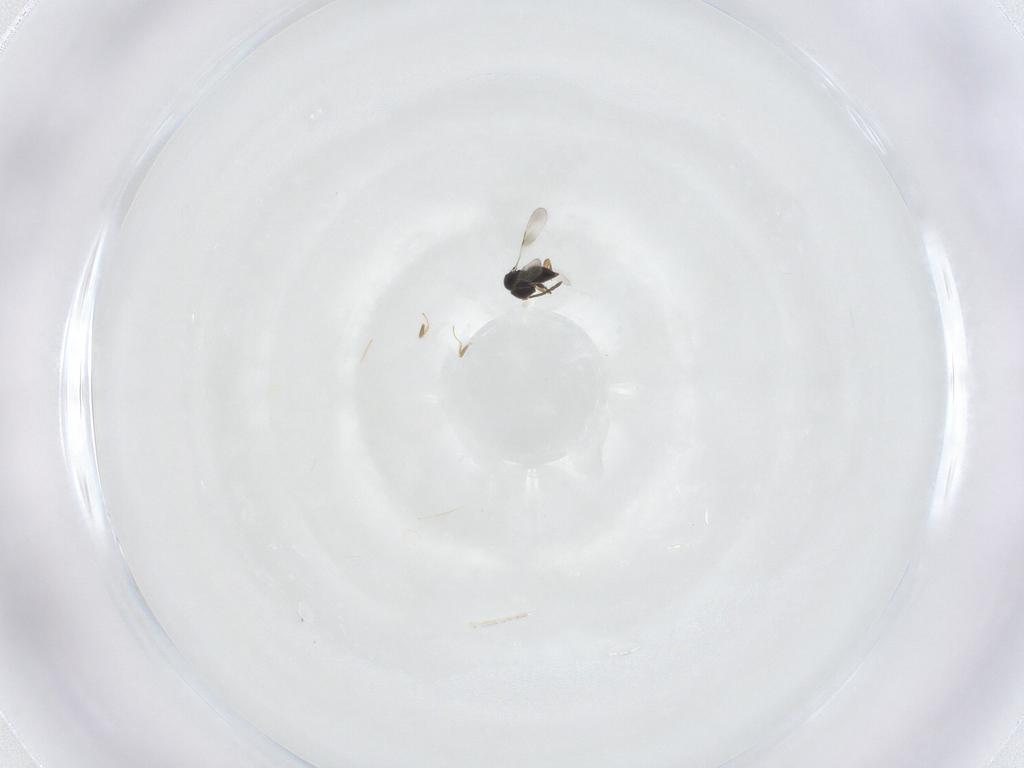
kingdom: Animalia
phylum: Arthropoda
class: Insecta
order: Hymenoptera
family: Ceraphronidae
